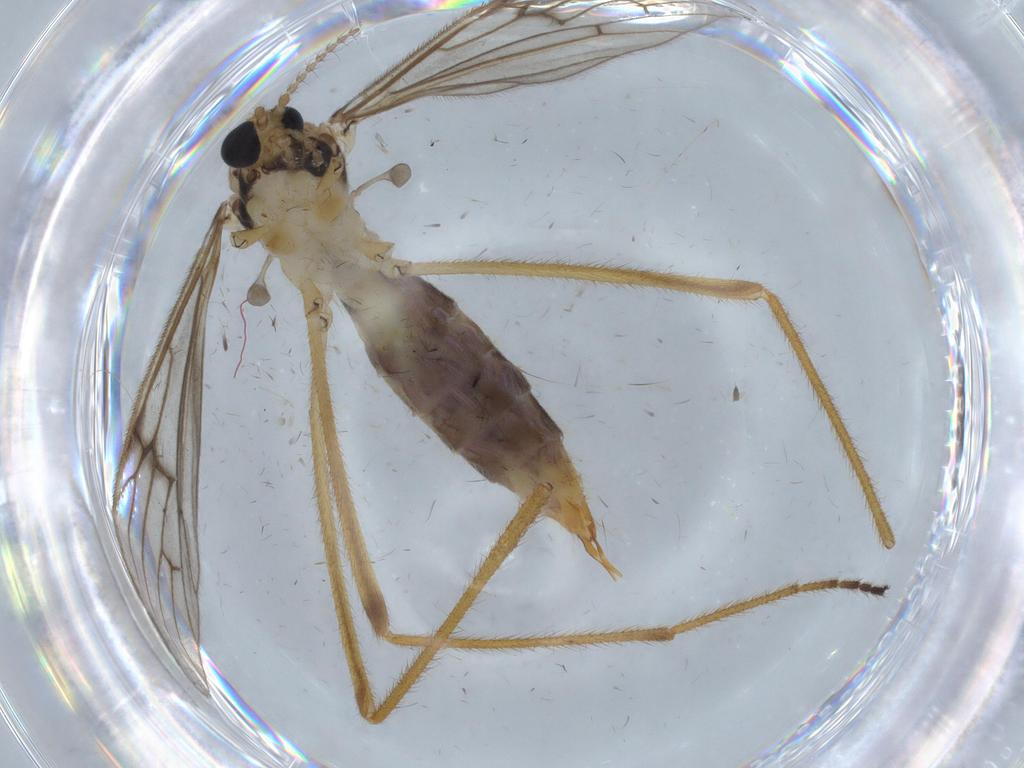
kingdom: Animalia
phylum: Arthropoda
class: Insecta
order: Diptera
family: Chironomidae
